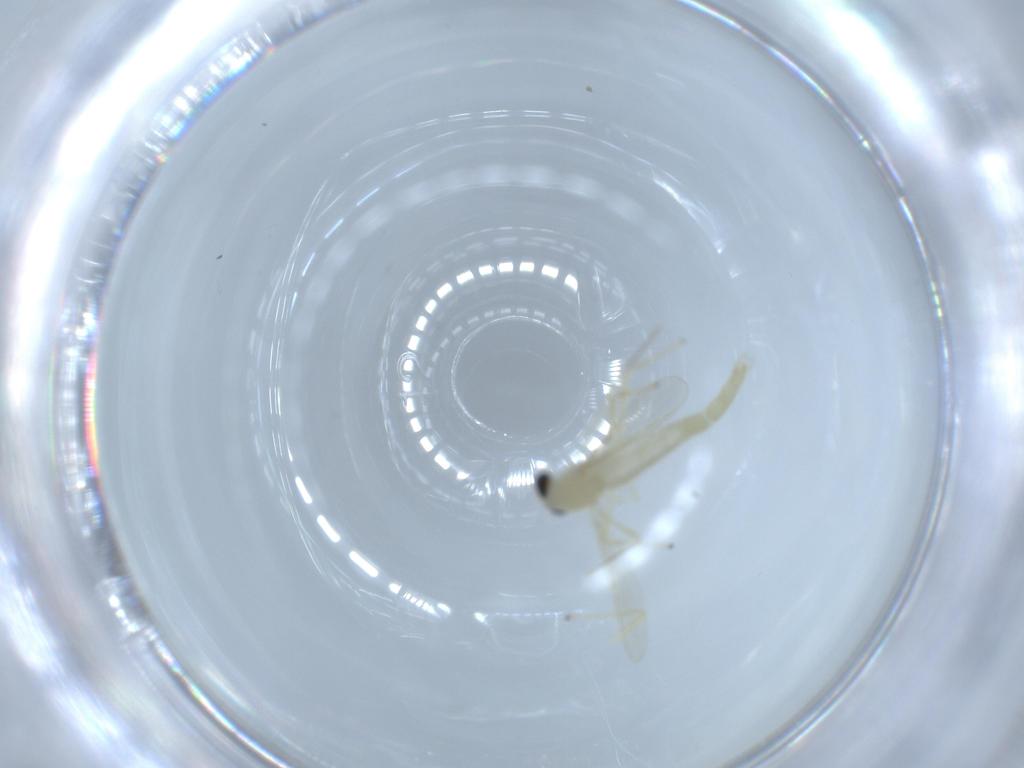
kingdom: Animalia
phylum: Arthropoda
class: Insecta
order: Diptera
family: Chironomidae
